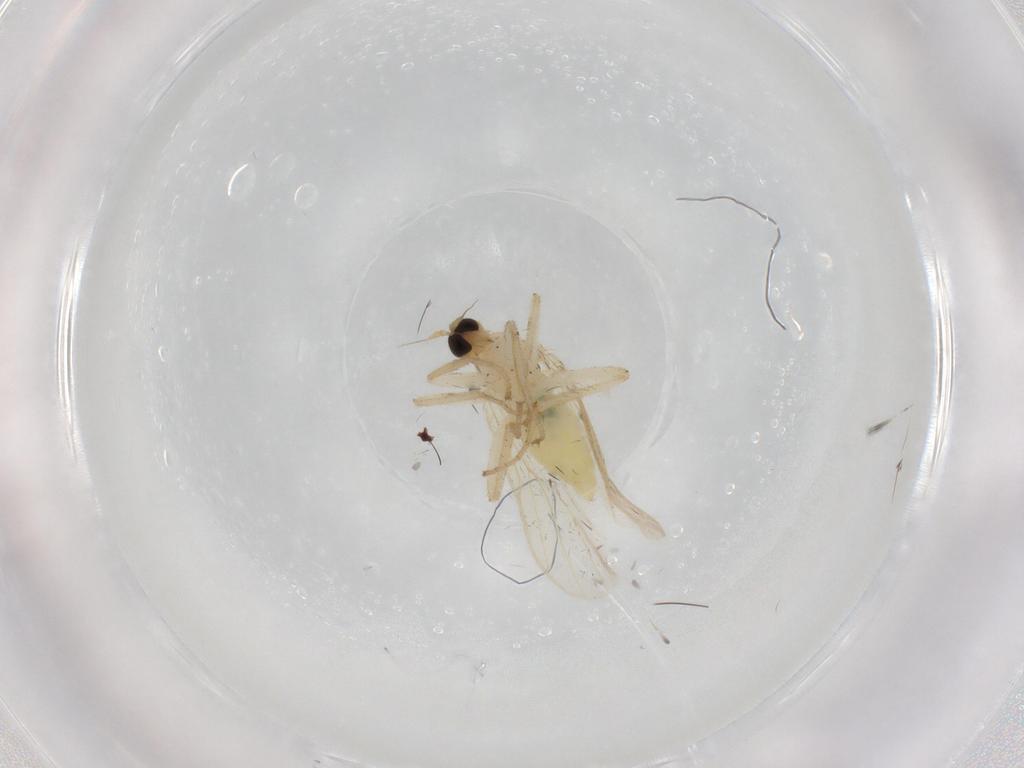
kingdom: Animalia
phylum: Arthropoda
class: Insecta
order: Diptera
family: Hybotidae
